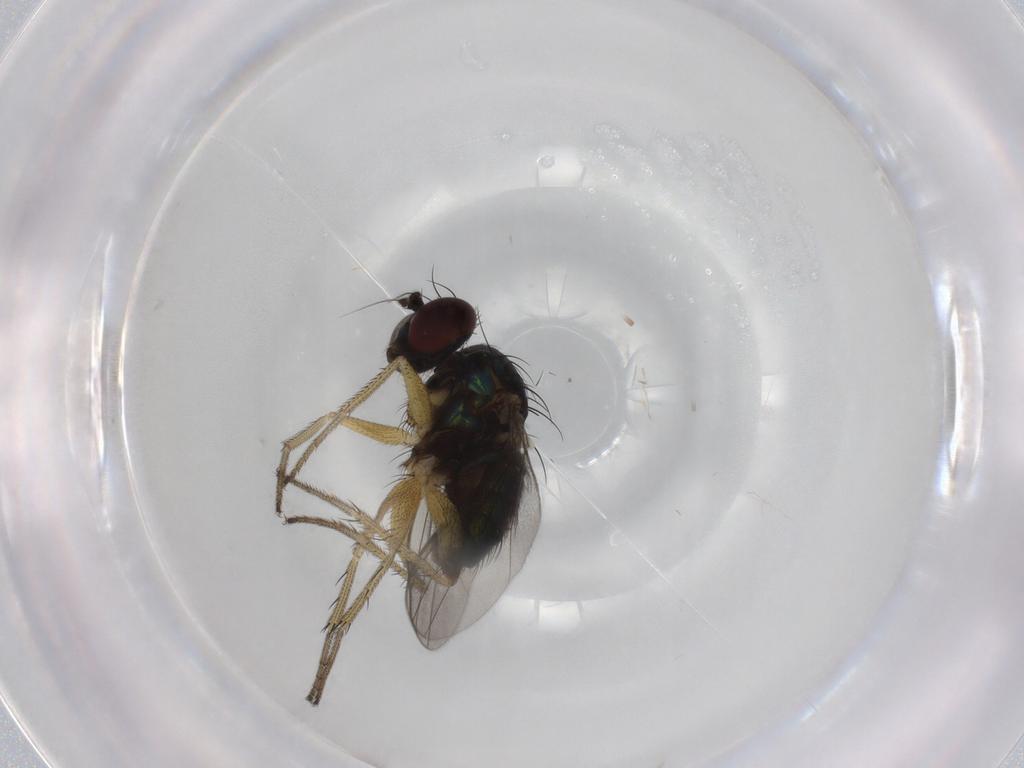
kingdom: Animalia
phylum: Arthropoda
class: Insecta
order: Diptera
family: Dolichopodidae
